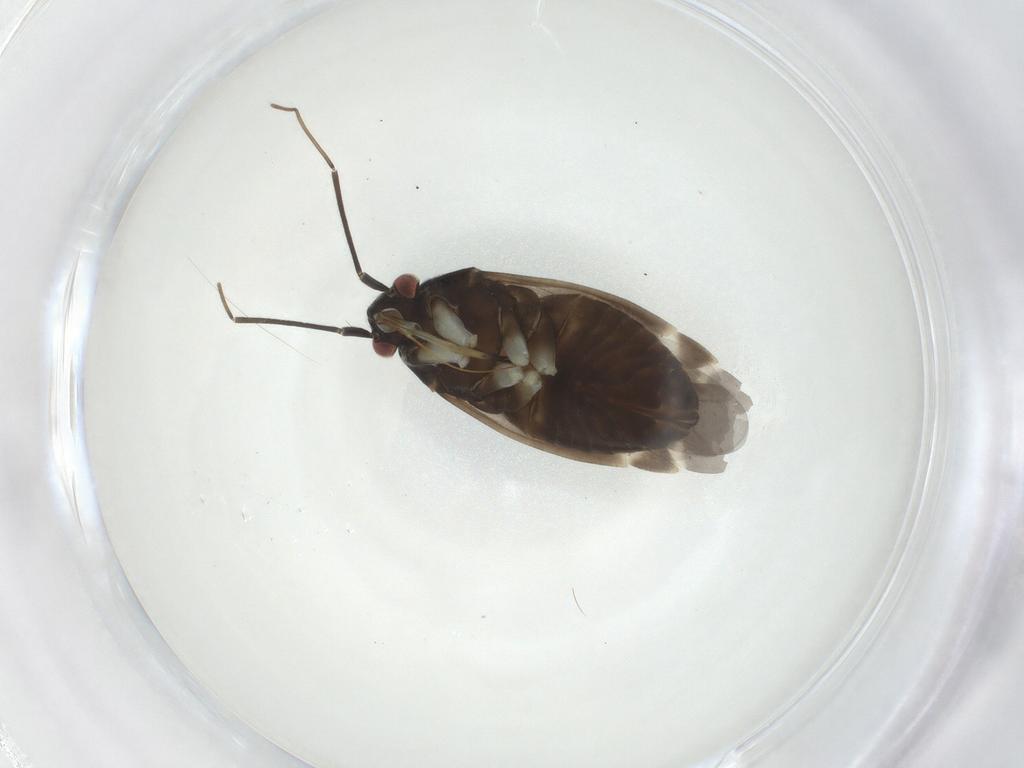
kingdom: Animalia
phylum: Arthropoda
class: Insecta
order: Hemiptera
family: Aphididae
